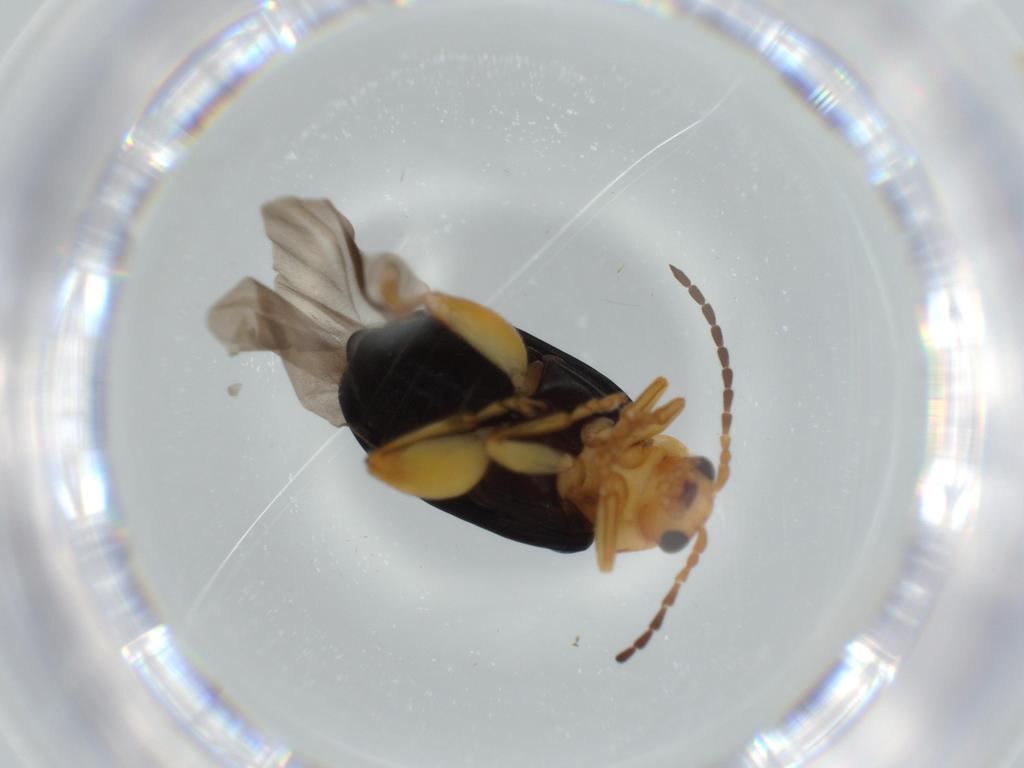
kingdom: Animalia
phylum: Arthropoda
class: Insecta
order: Coleoptera
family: Chrysomelidae
